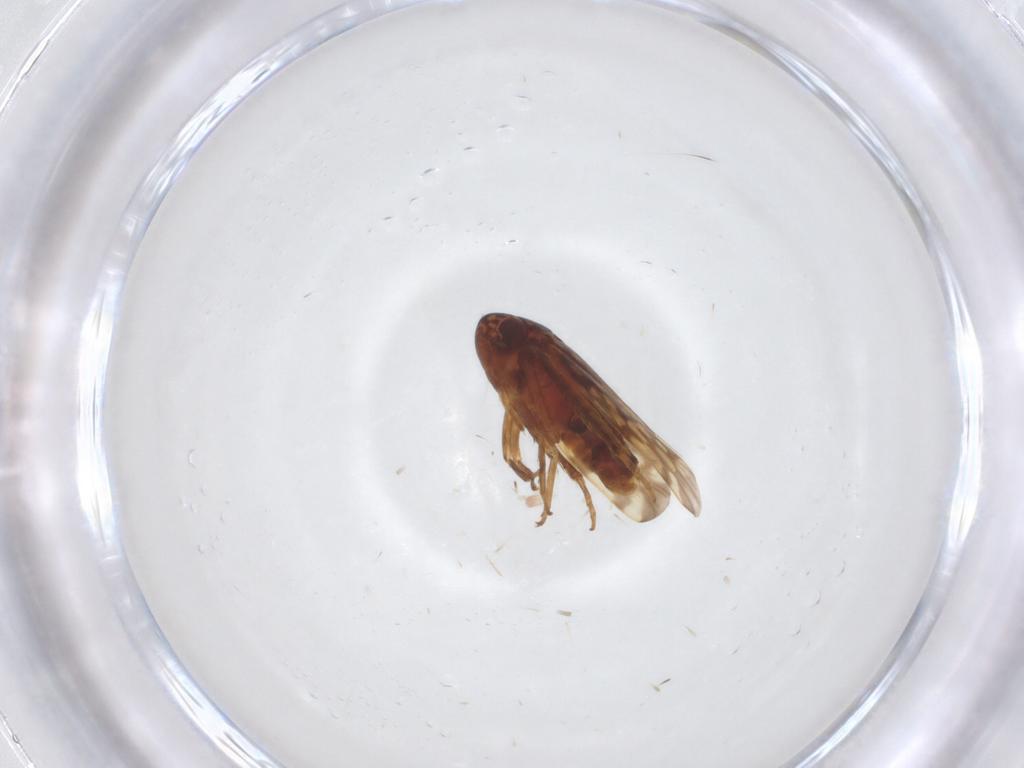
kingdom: Animalia
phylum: Arthropoda
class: Insecta
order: Hemiptera
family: Cicadellidae
